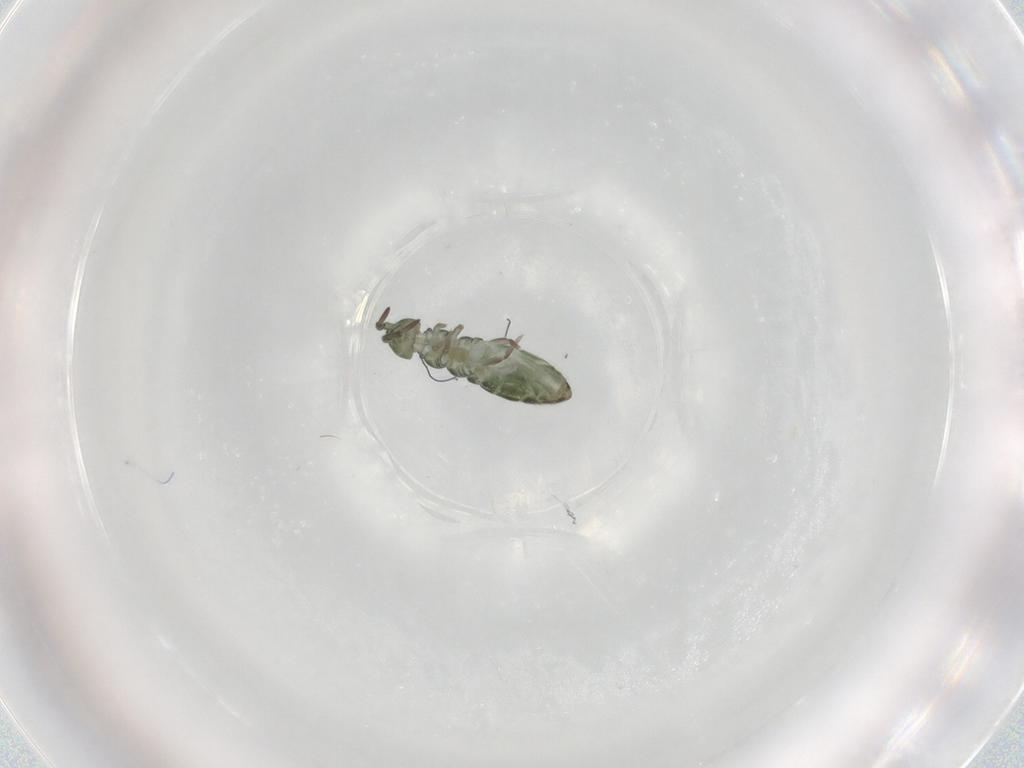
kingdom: Animalia
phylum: Arthropoda
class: Collembola
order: Entomobryomorpha
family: Isotomidae
